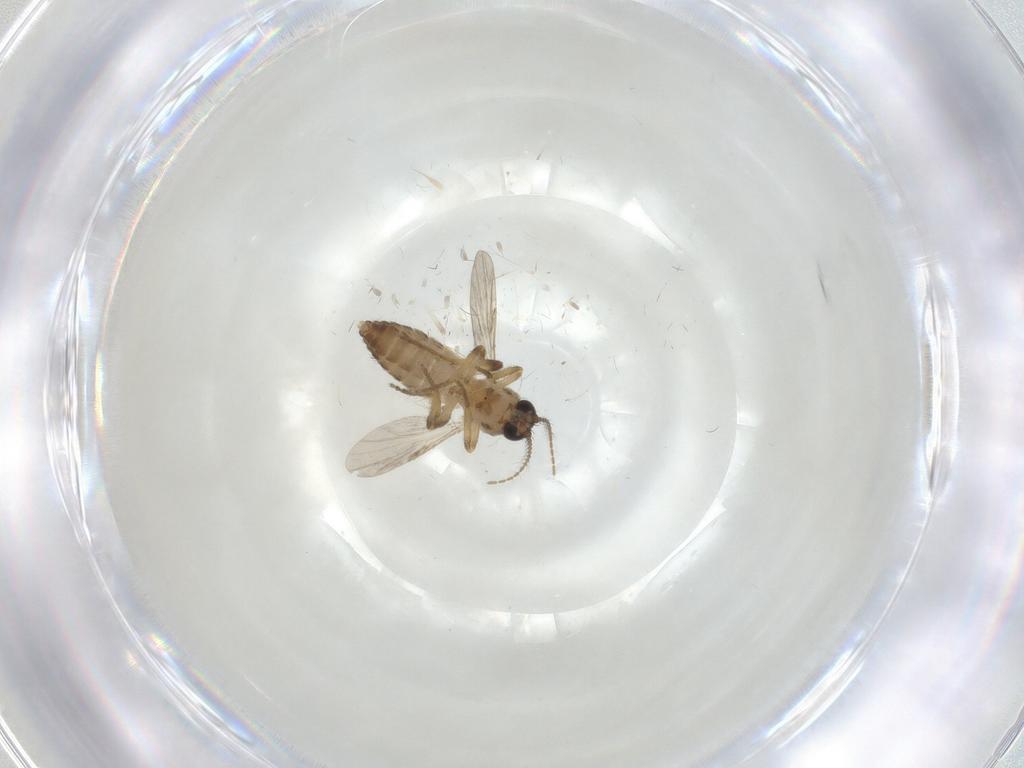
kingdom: Animalia
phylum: Arthropoda
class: Insecta
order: Diptera
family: Ceratopogonidae
